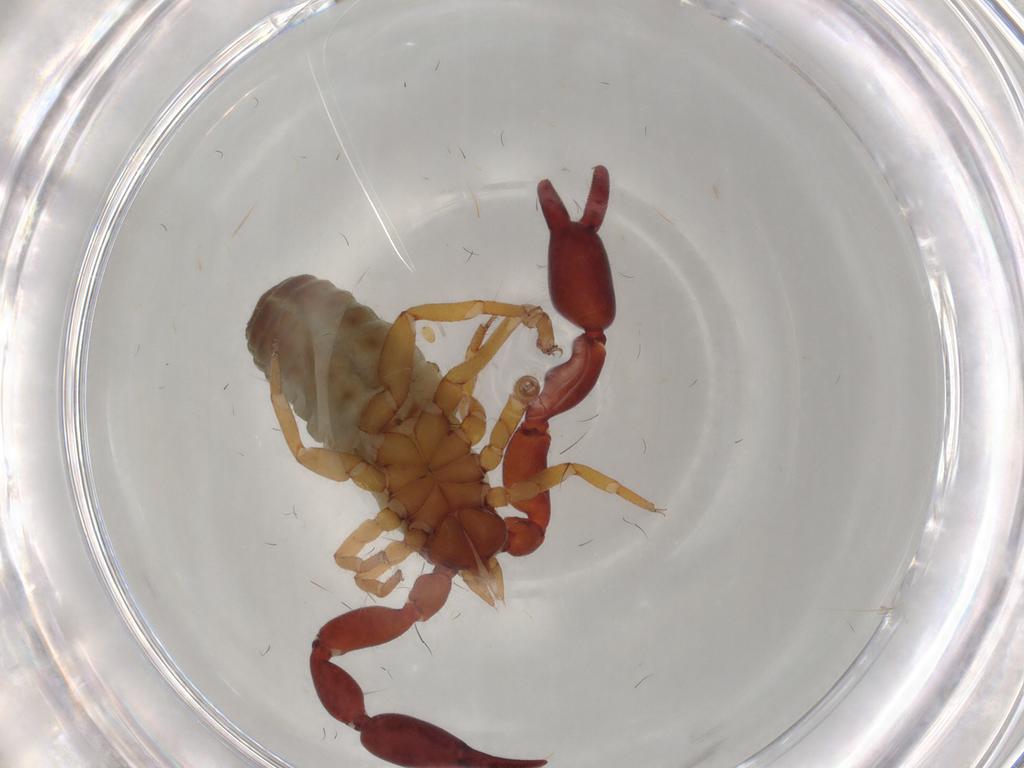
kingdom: Animalia
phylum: Arthropoda
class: Arachnida
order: Pseudoscorpiones
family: Chernetidae
